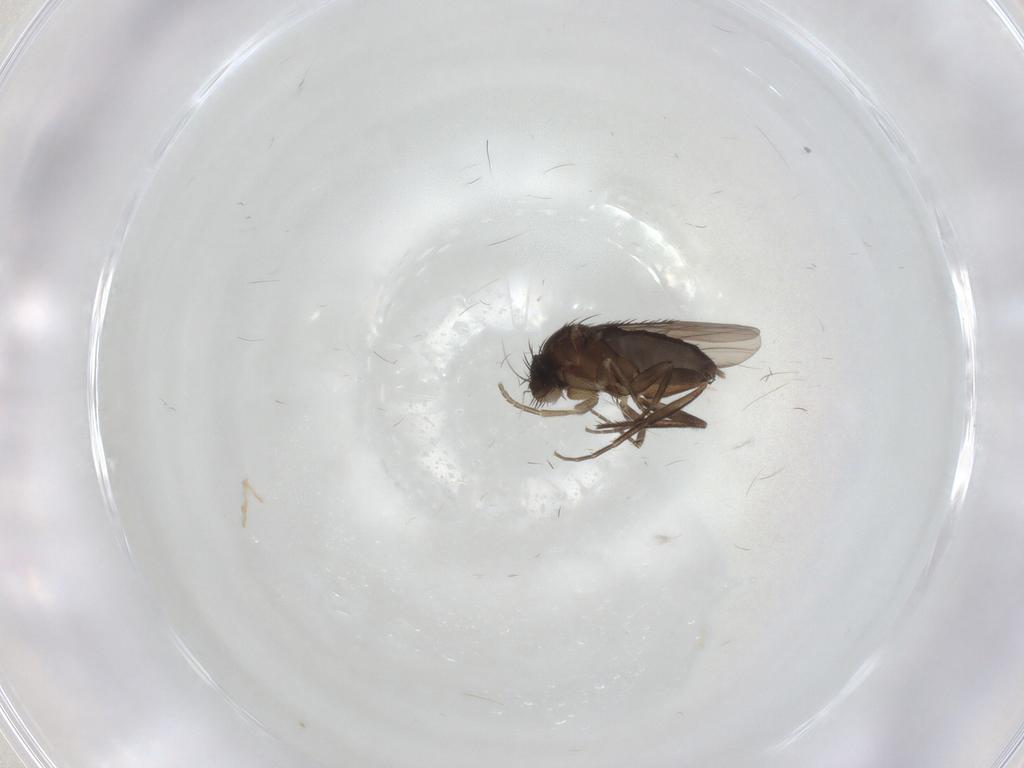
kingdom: Animalia
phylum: Arthropoda
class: Insecta
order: Diptera
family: Phoridae
